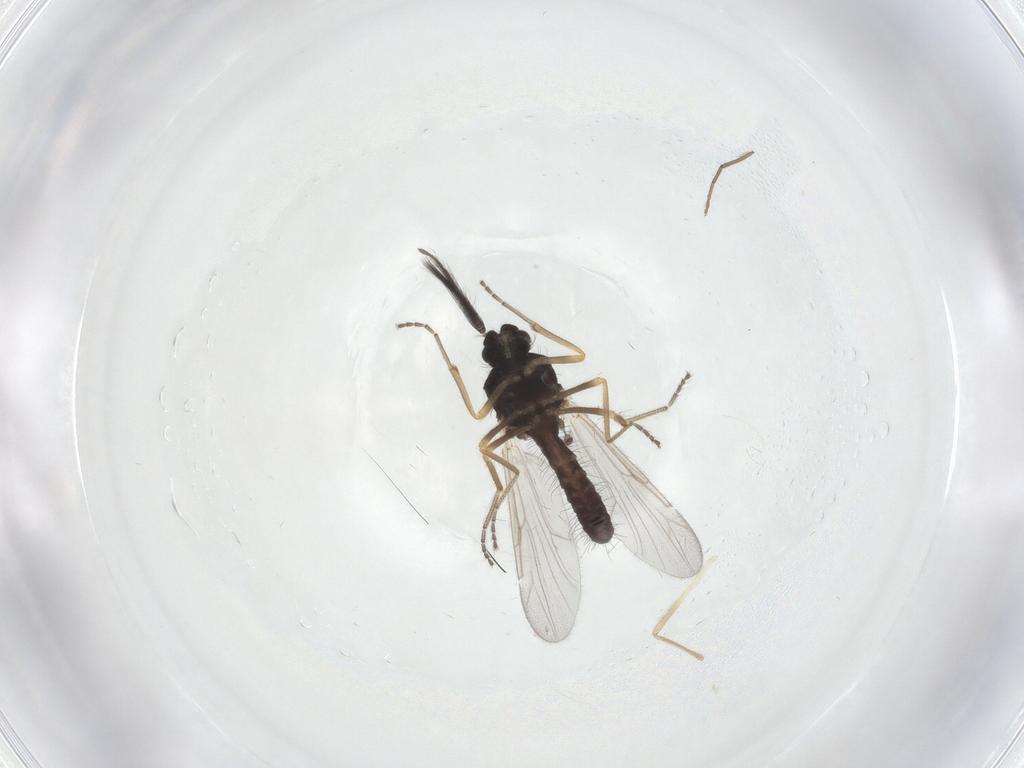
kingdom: Animalia
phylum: Arthropoda
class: Insecta
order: Diptera
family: Ceratopogonidae
